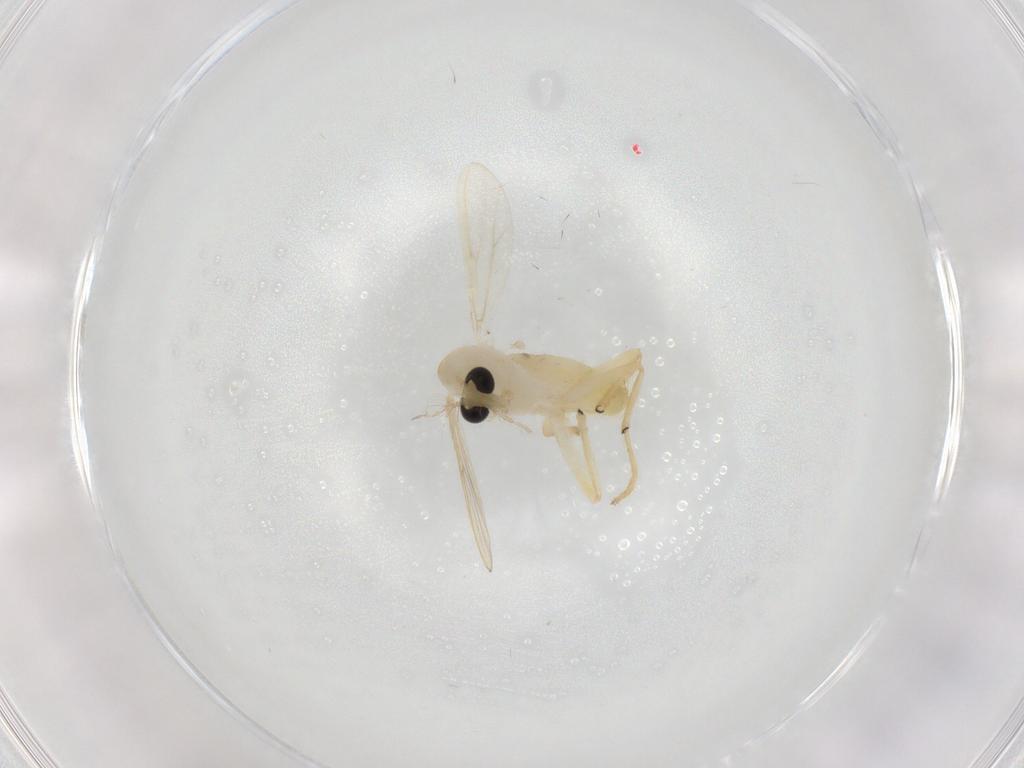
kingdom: Animalia
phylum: Arthropoda
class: Insecta
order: Diptera
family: Chironomidae
